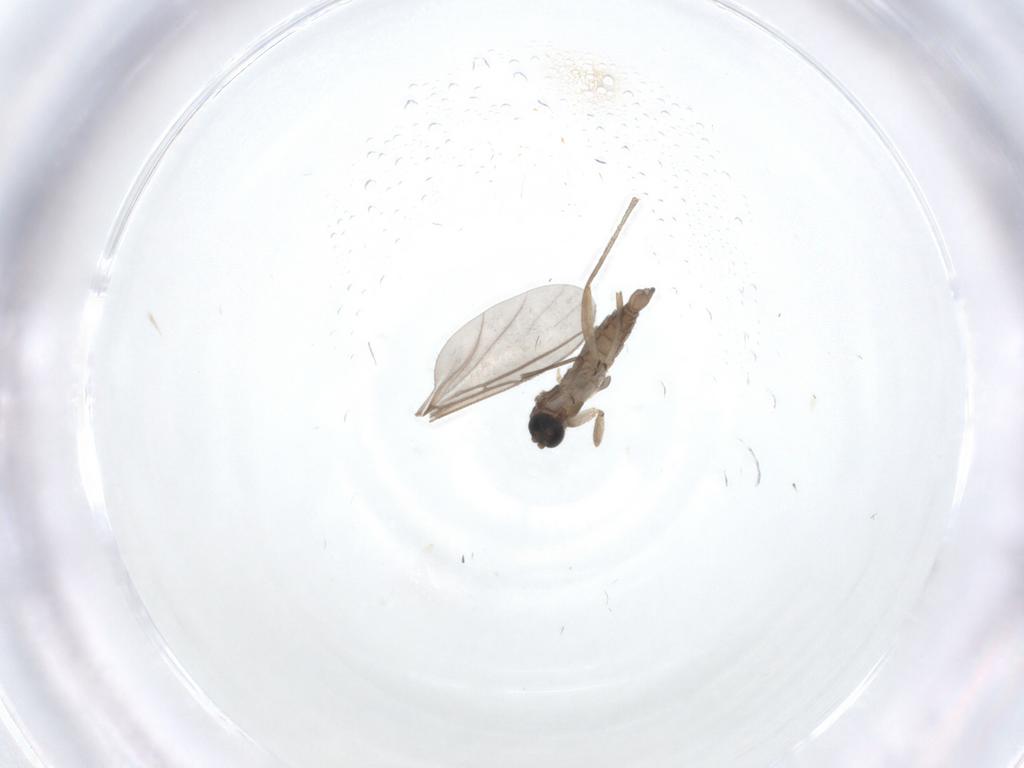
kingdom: Animalia
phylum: Arthropoda
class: Insecta
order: Diptera
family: Sciaridae
